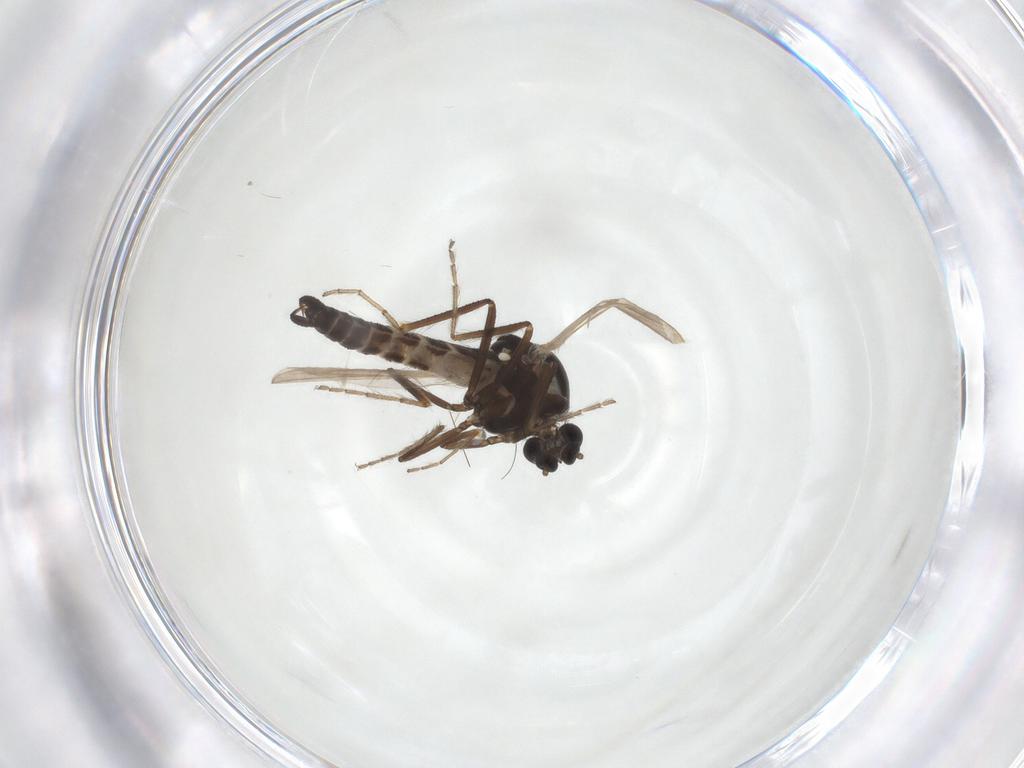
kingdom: Animalia
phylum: Arthropoda
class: Insecta
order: Diptera
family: Ceratopogonidae
